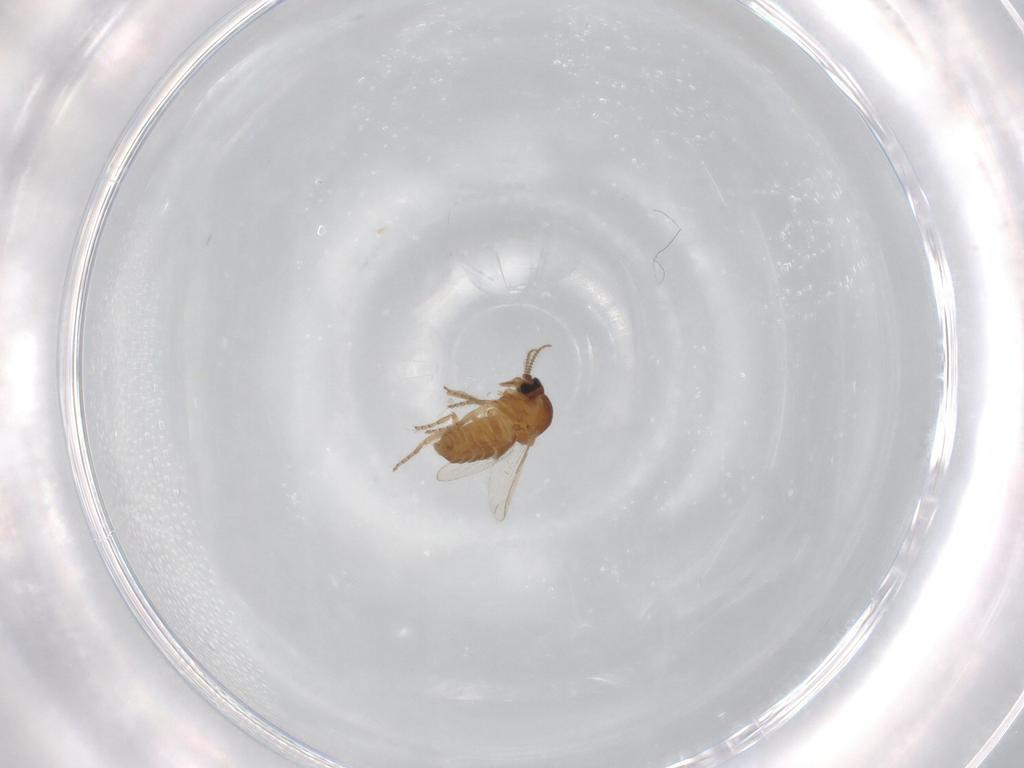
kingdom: Animalia
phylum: Arthropoda
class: Insecta
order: Diptera
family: Ceratopogonidae
